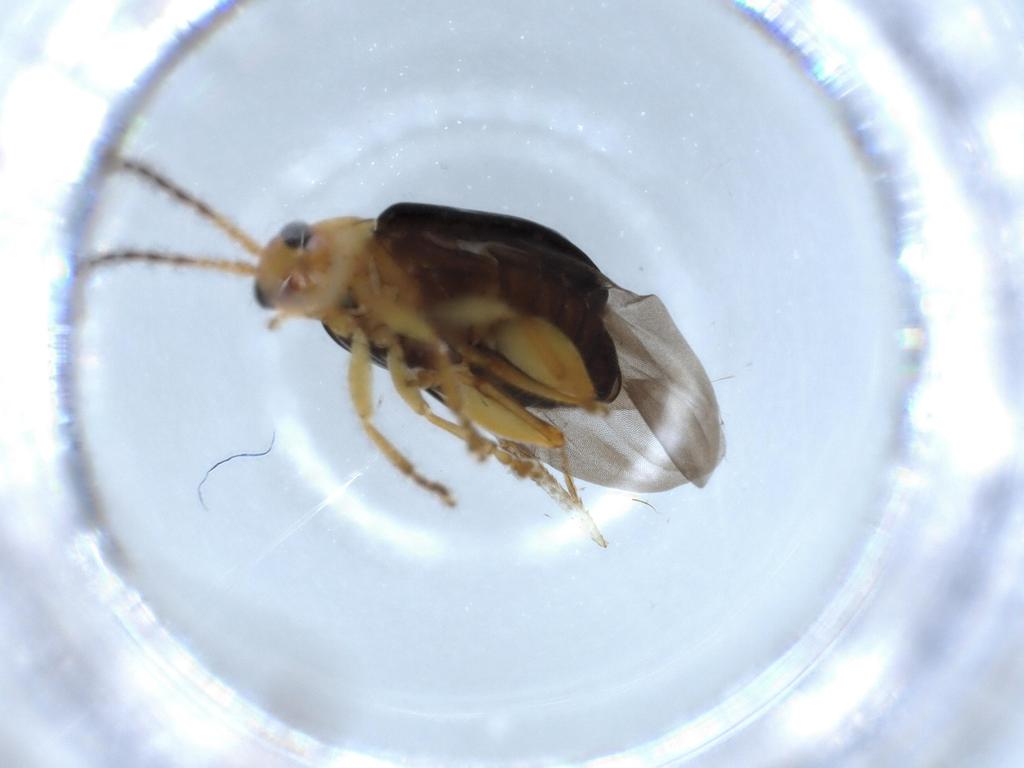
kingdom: Animalia
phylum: Arthropoda
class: Insecta
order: Coleoptera
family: Chrysomelidae
